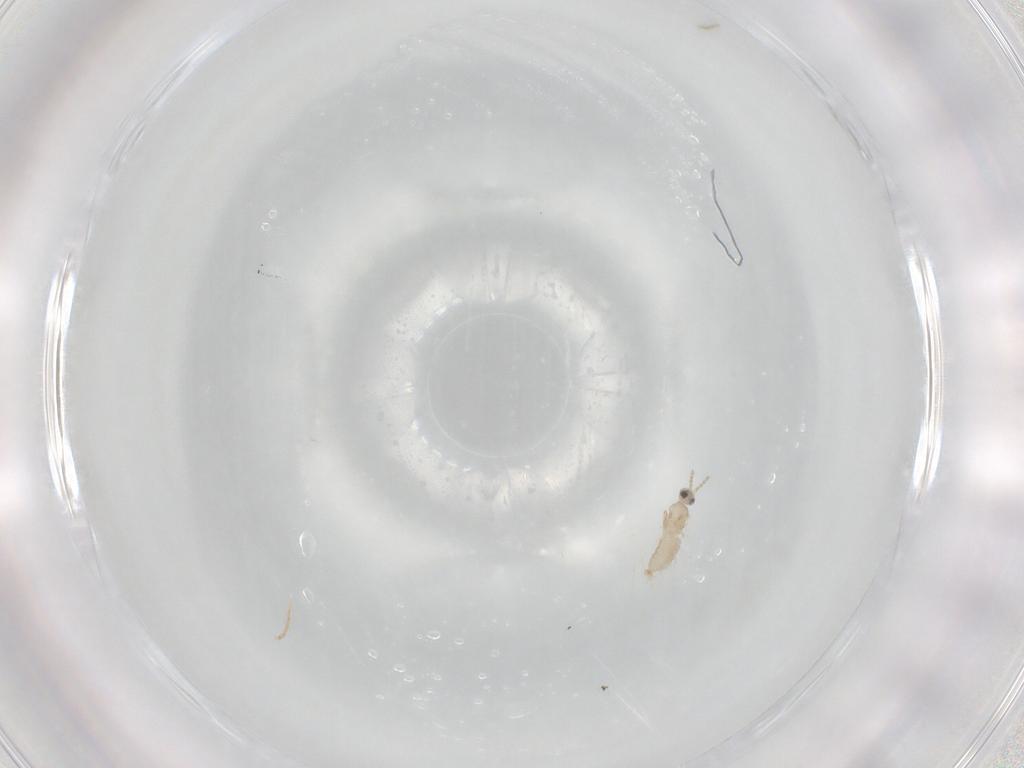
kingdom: Animalia
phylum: Arthropoda
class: Insecta
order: Diptera
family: Cecidomyiidae
